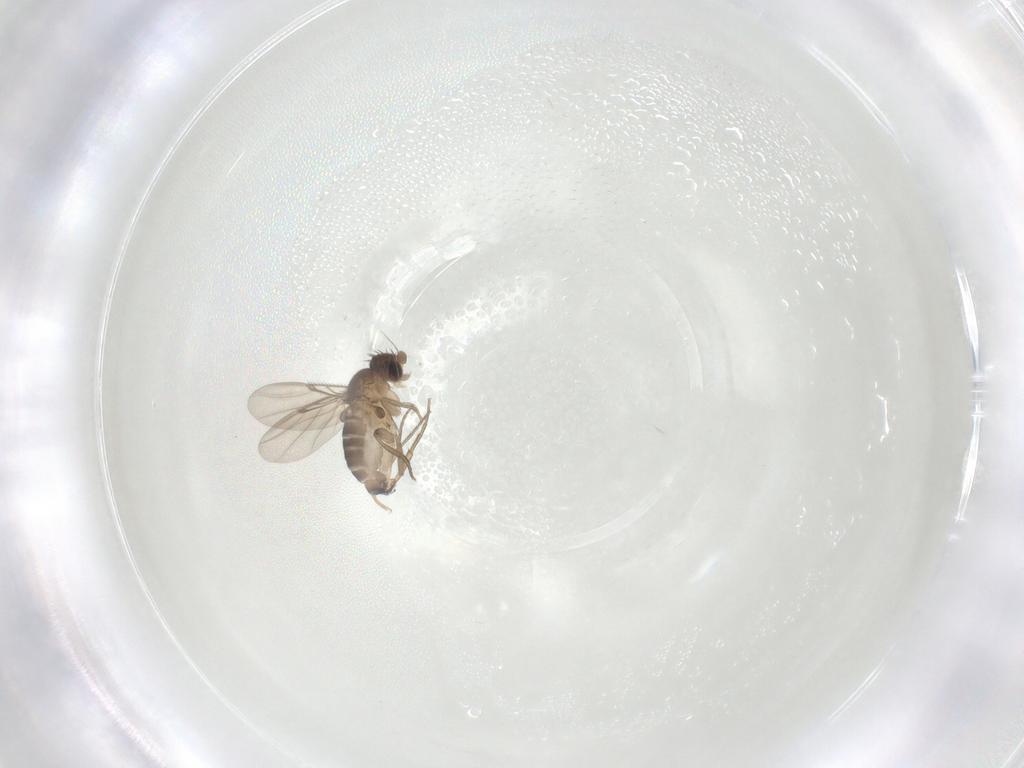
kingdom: Animalia
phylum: Arthropoda
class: Insecta
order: Diptera
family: Phoridae
